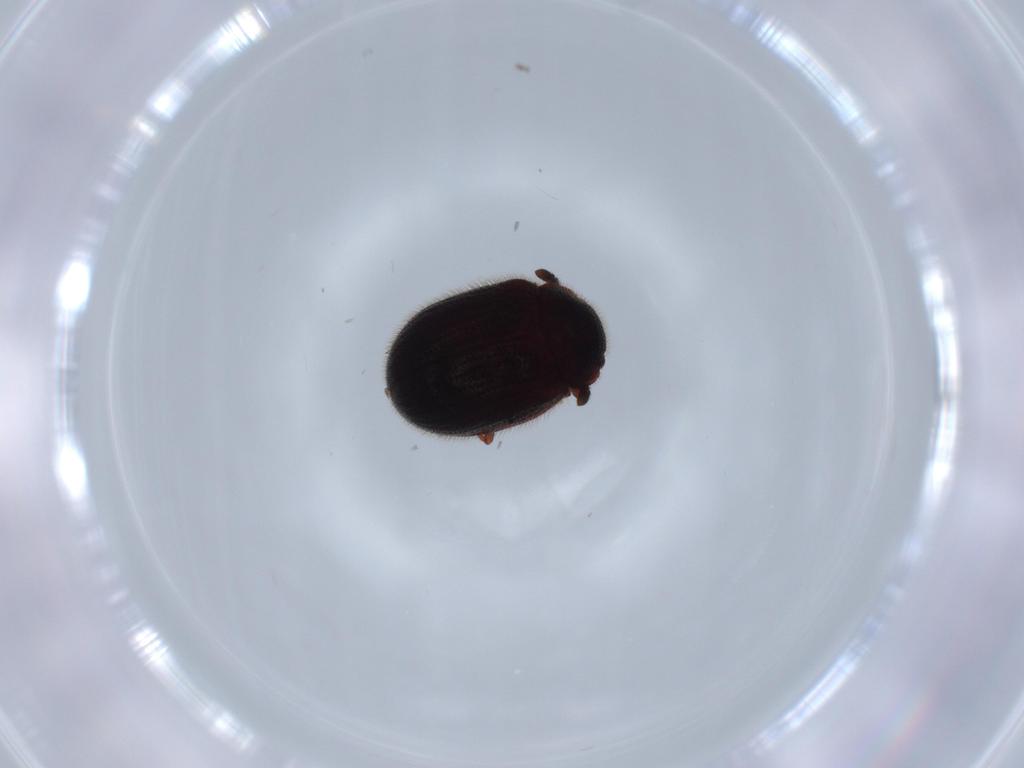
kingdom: Animalia
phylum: Arthropoda
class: Insecta
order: Coleoptera
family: Sphindidae
